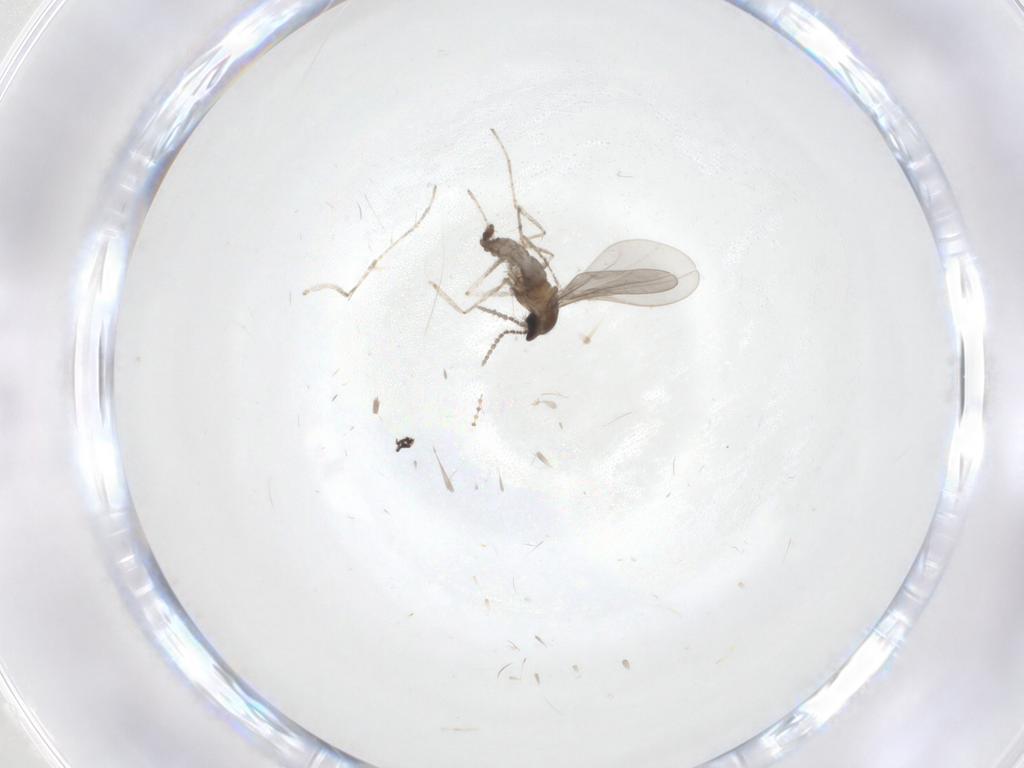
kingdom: Animalia
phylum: Arthropoda
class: Insecta
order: Diptera
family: Cecidomyiidae
